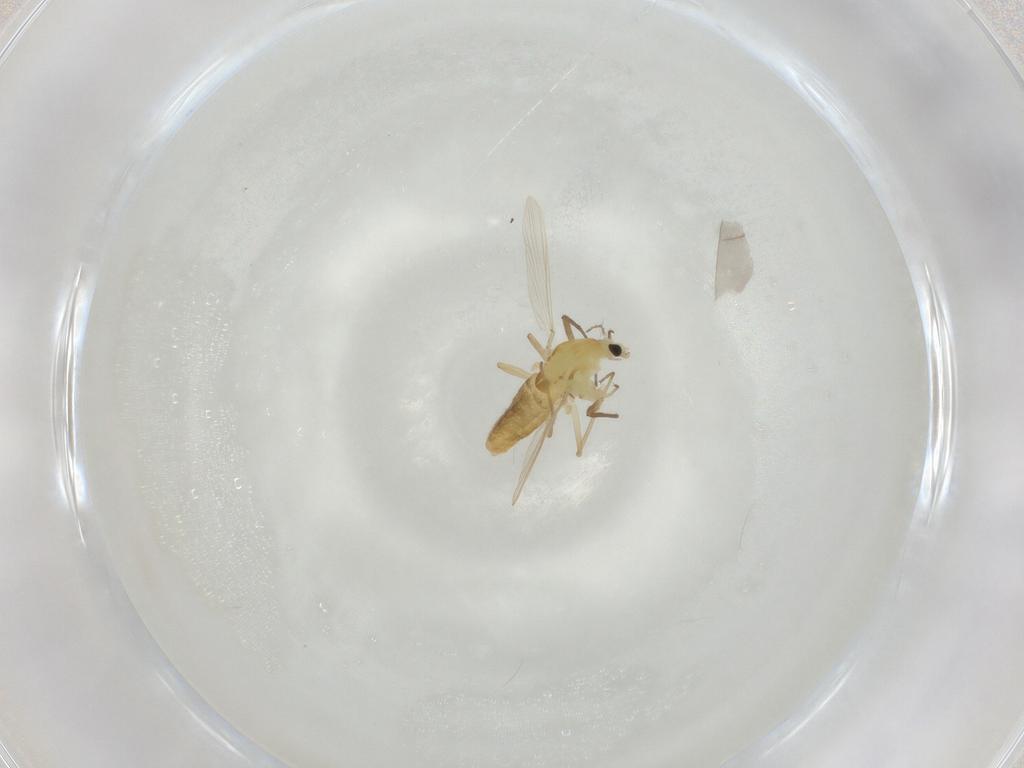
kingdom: Animalia
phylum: Arthropoda
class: Insecta
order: Diptera
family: Chironomidae
